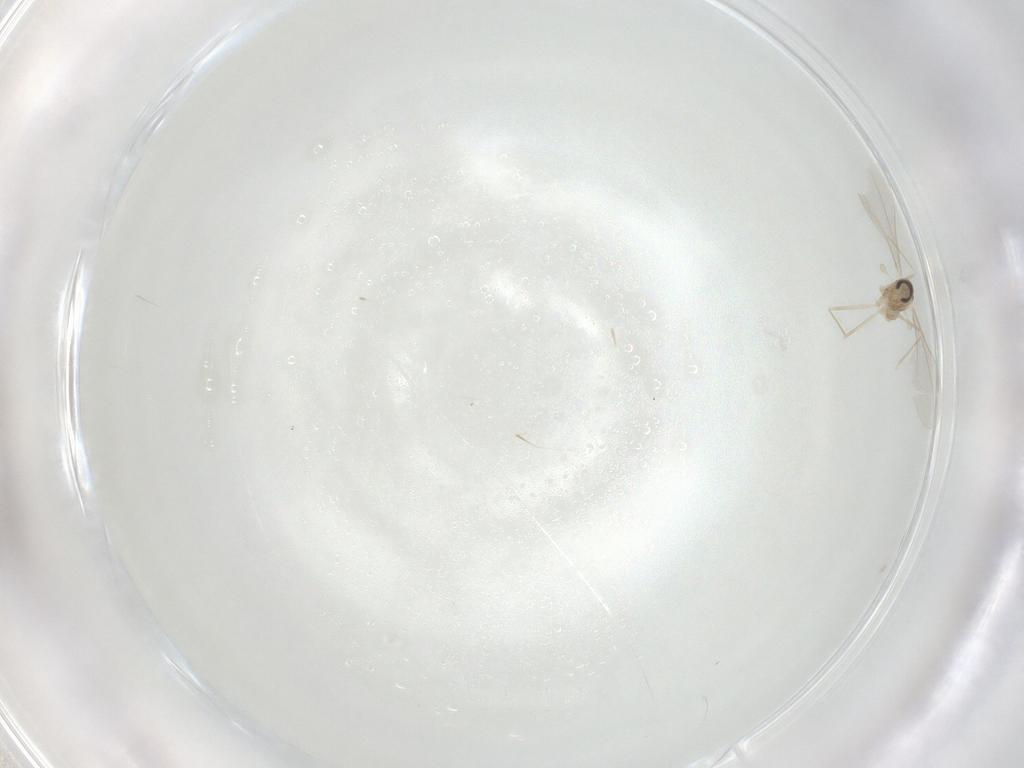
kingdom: Animalia
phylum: Arthropoda
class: Insecta
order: Diptera
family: Cecidomyiidae
